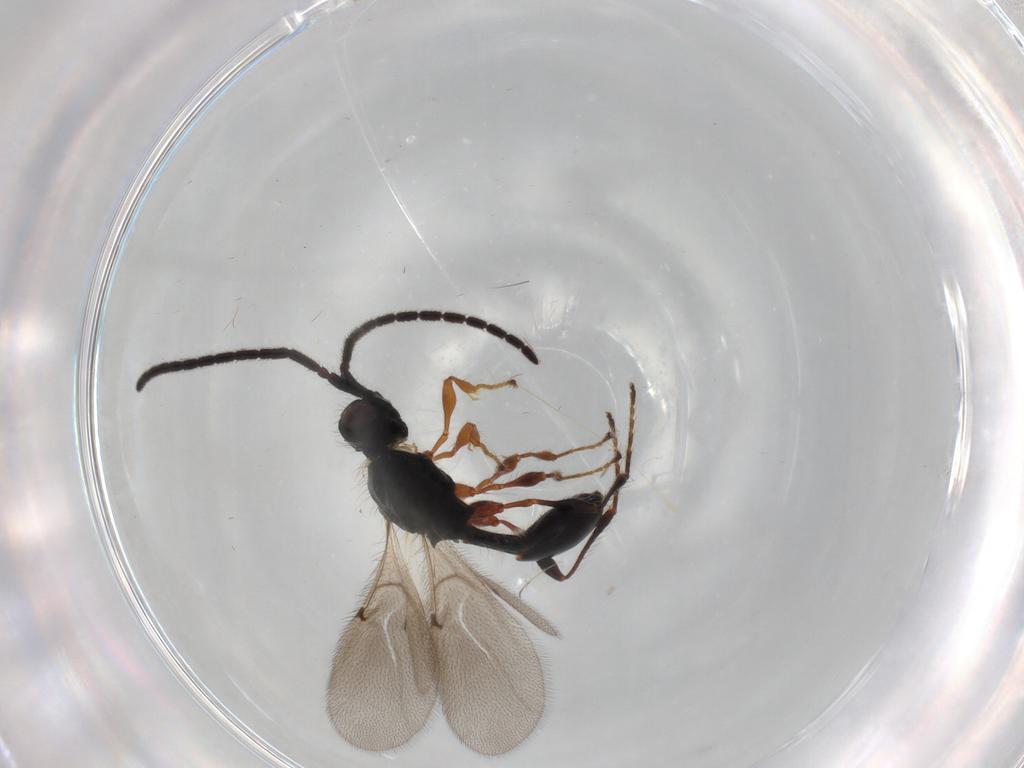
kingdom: Animalia
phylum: Arthropoda
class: Insecta
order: Hymenoptera
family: Diapriidae
